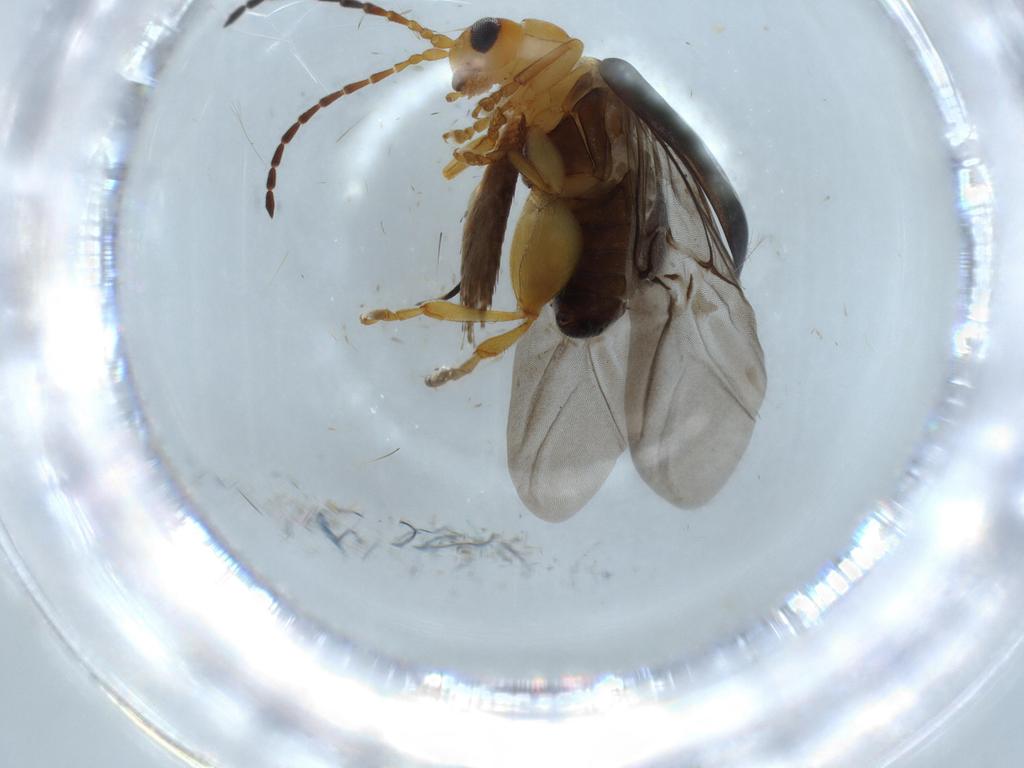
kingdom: Animalia
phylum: Arthropoda
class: Insecta
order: Coleoptera
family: Chrysomelidae
